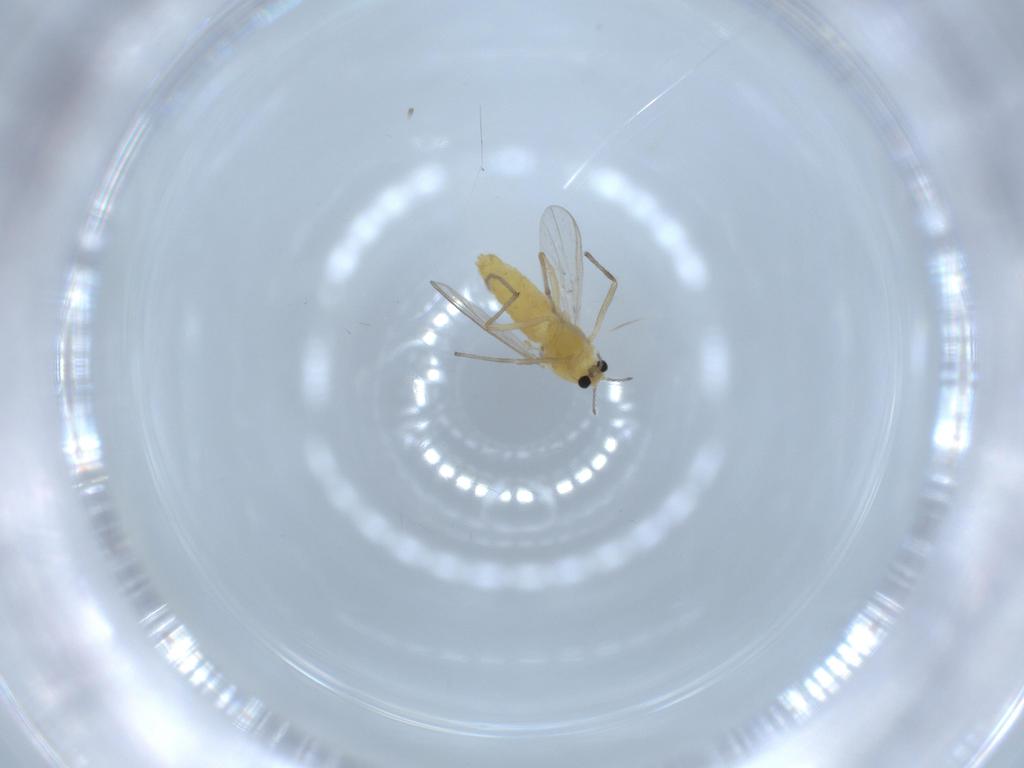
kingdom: Animalia
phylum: Arthropoda
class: Insecta
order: Diptera
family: Chironomidae
